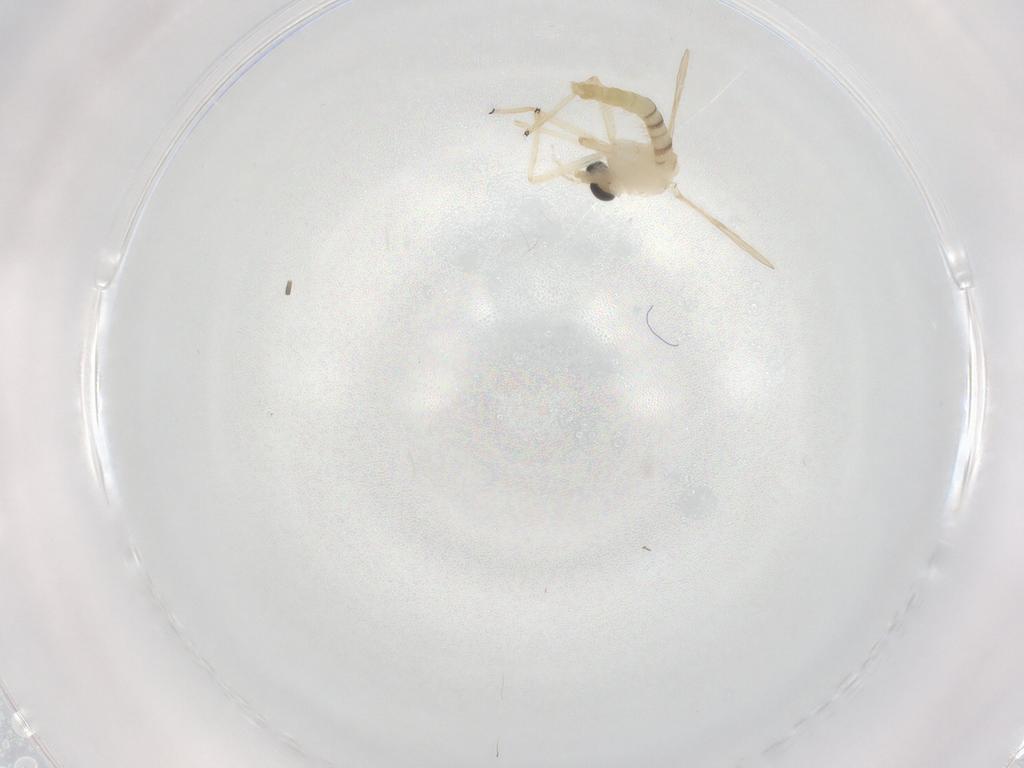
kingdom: Animalia
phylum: Arthropoda
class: Insecta
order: Diptera
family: Chironomidae
